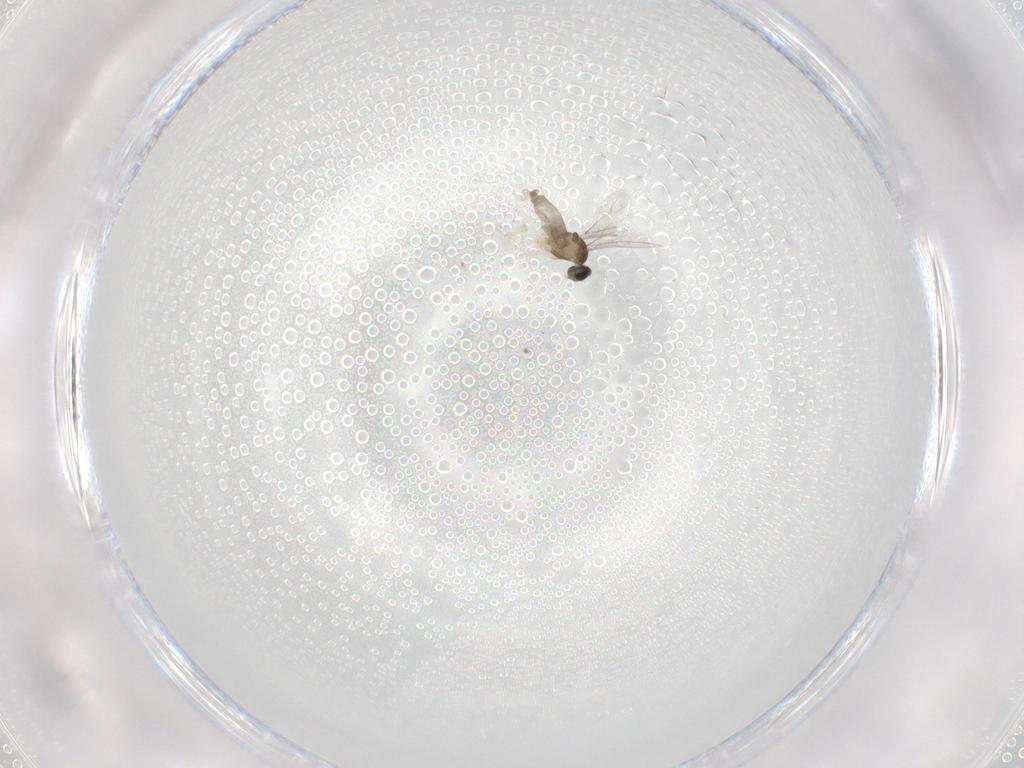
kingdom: Animalia
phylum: Arthropoda
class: Insecta
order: Diptera
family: Cecidomyiidae
